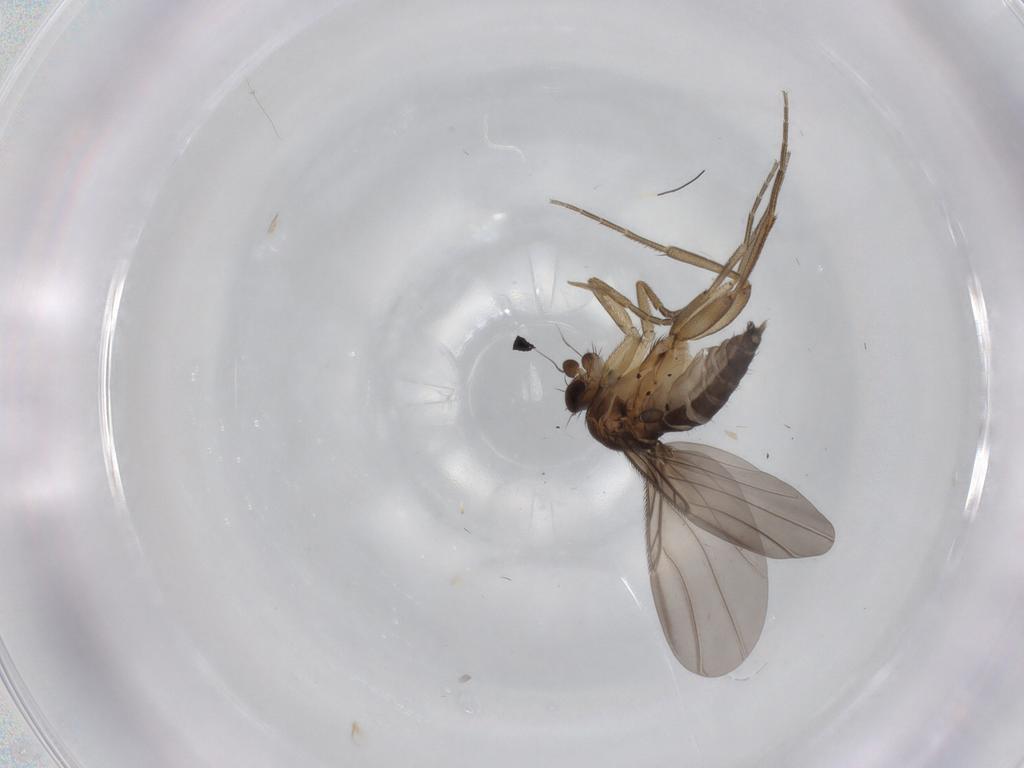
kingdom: Animalia
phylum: Arthropoda
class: Insecta
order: Diptera
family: Phoridae
